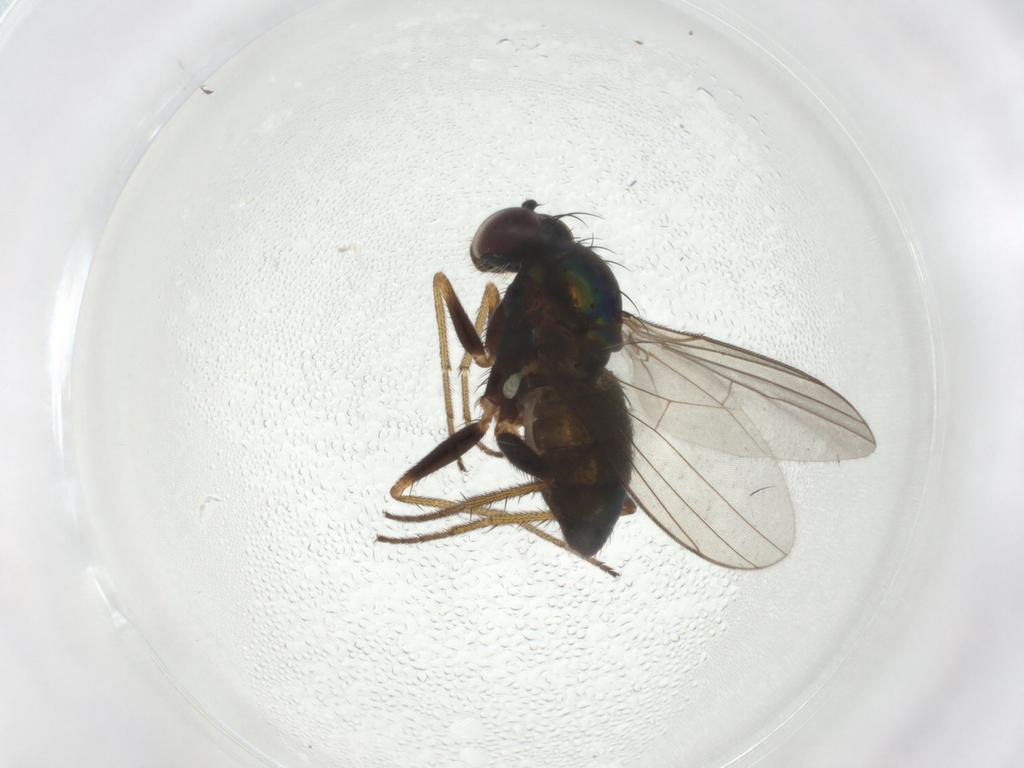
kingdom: Animalia
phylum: Arthropoda
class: Insecta
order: Diptera
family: Dolichopodidae
